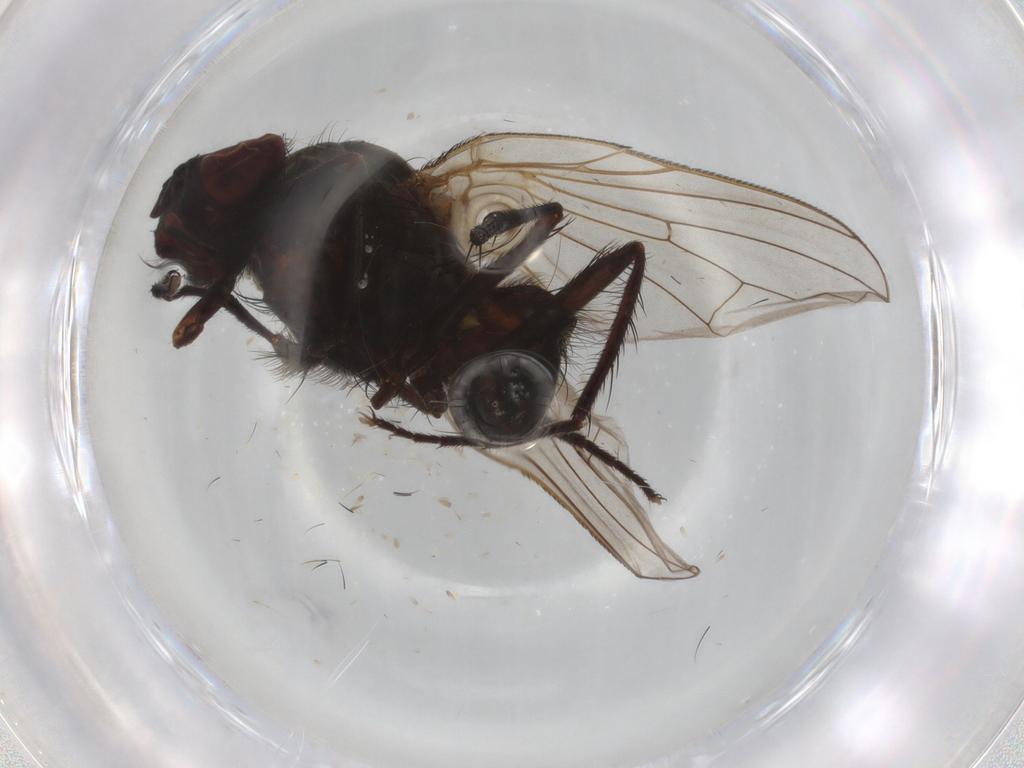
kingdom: Animalia
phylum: Arthropoda
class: Insecta
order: Diptera
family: Anthomyiidae
